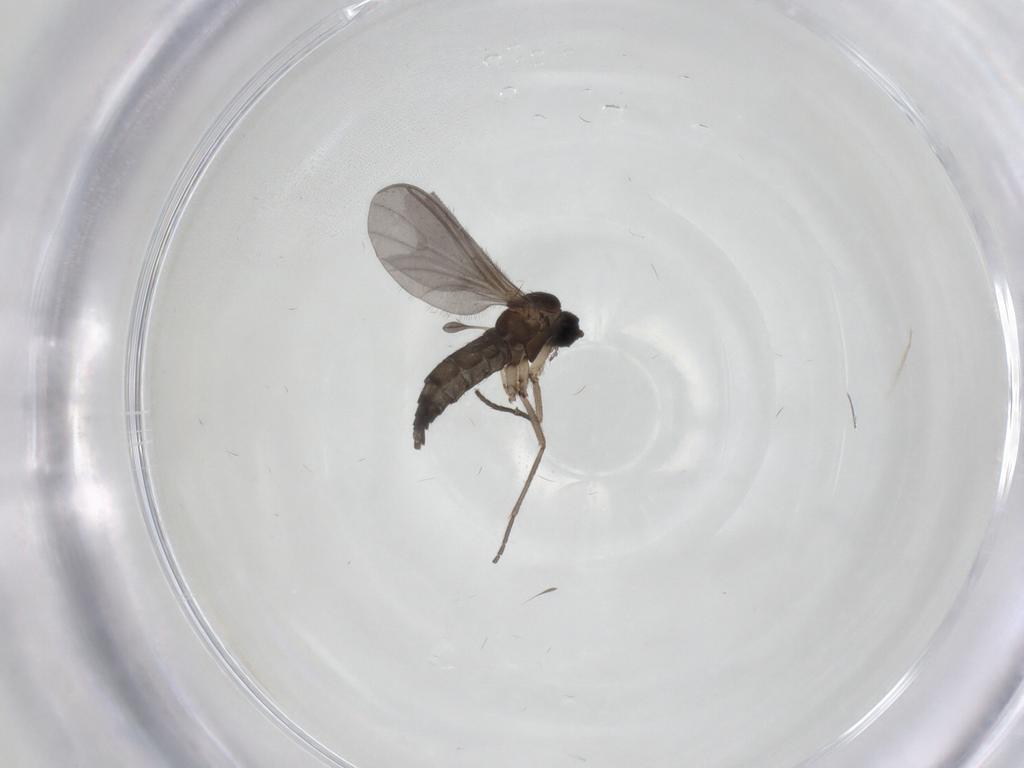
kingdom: Animalia
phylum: Arthropoda
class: Insecta
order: Diptera
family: Sciaridae
